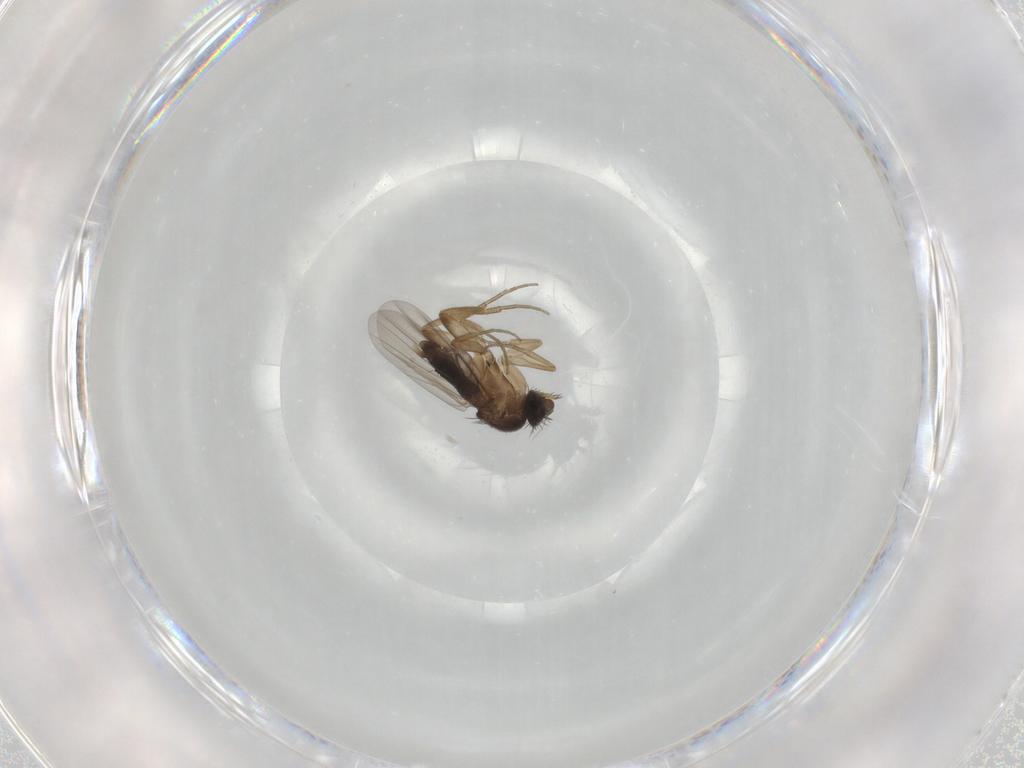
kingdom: Animalia
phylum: Arthropoda
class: Insecta
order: Diptera
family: Phoridae
